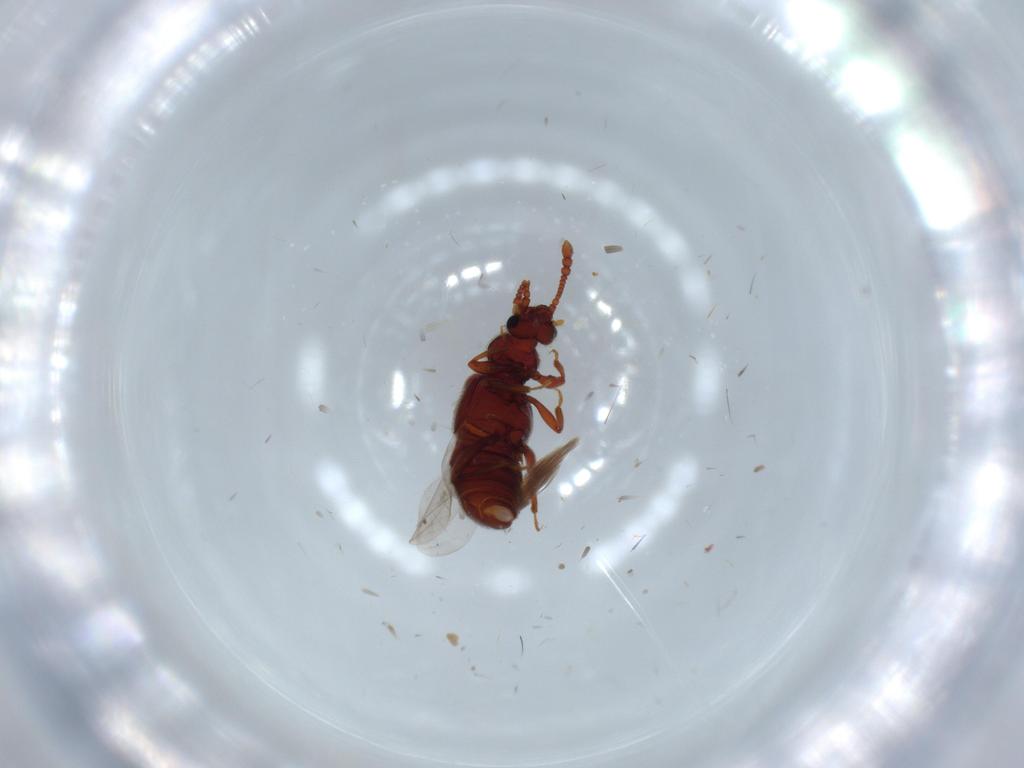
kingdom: Animalia
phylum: Arthropoda
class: Insecta
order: Coleoptera
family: Staphylinidae
